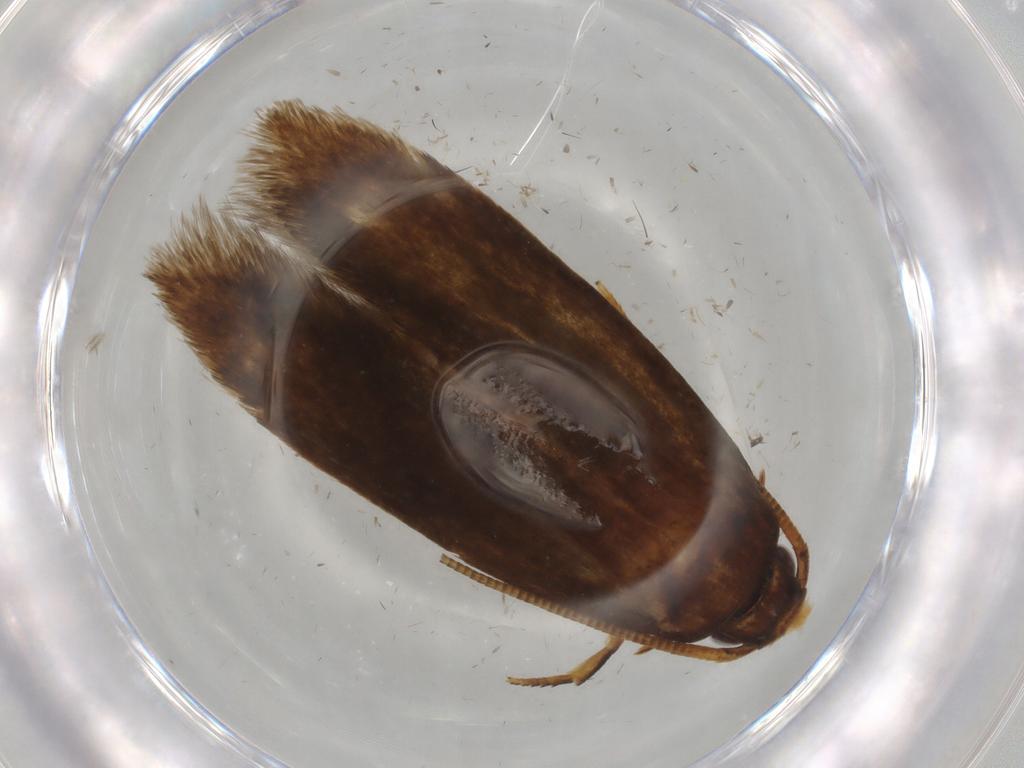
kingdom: Animalia
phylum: Arthropoda
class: Insecta
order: Lepidoptera
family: Tineidae
